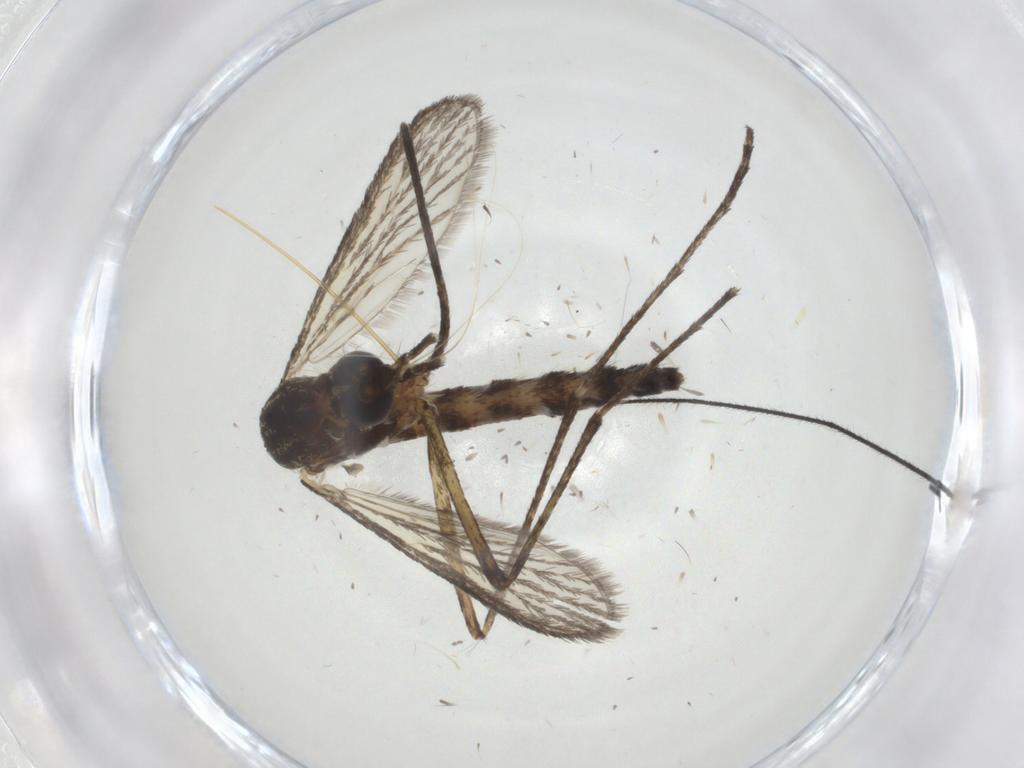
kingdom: Animalia
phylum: Arthropoda
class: Insecta
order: Diptera
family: Culicidae
